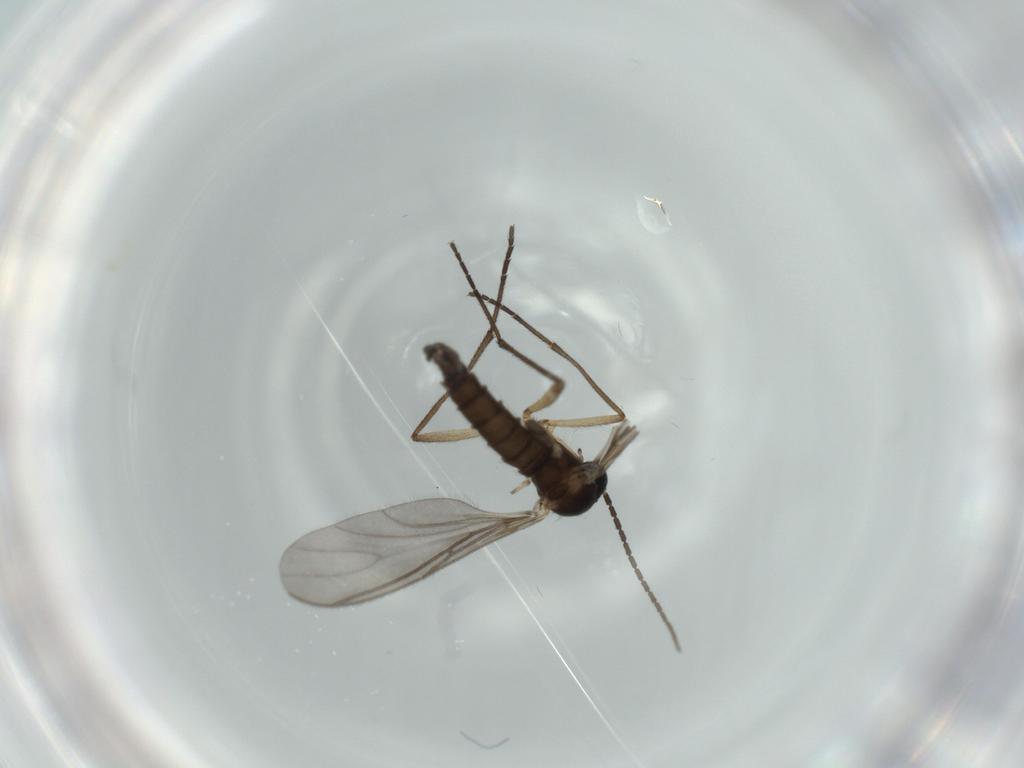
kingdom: Animalia
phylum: Arthropoda
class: Insecta
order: Diptera
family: Sciaridae
